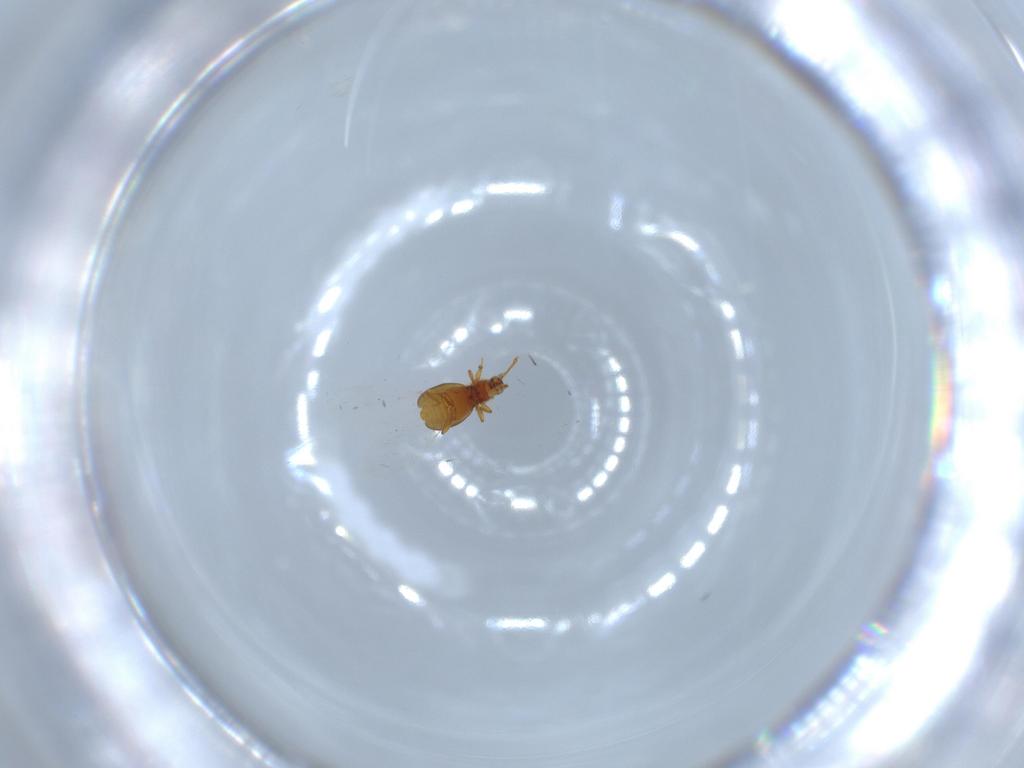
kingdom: Animalia
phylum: Arthropoda
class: Insecta
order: Coleoptera
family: Staphylinidae
